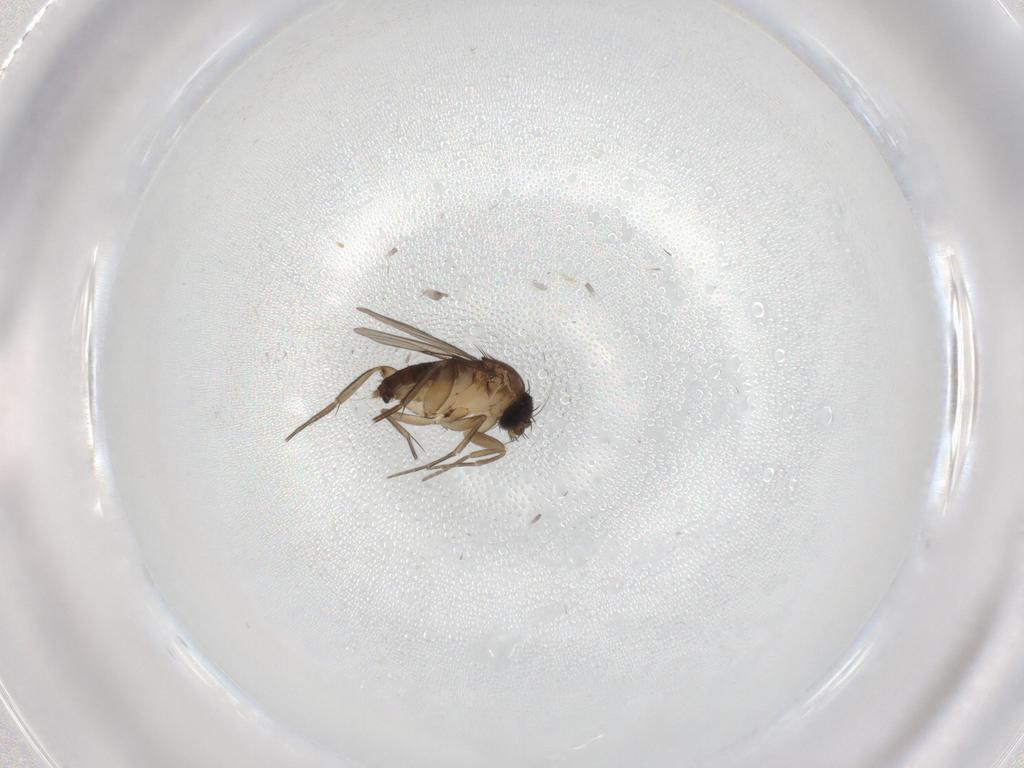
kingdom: Animalia
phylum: Arthropoda
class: Insecta
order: Diptera
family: Phoridae
